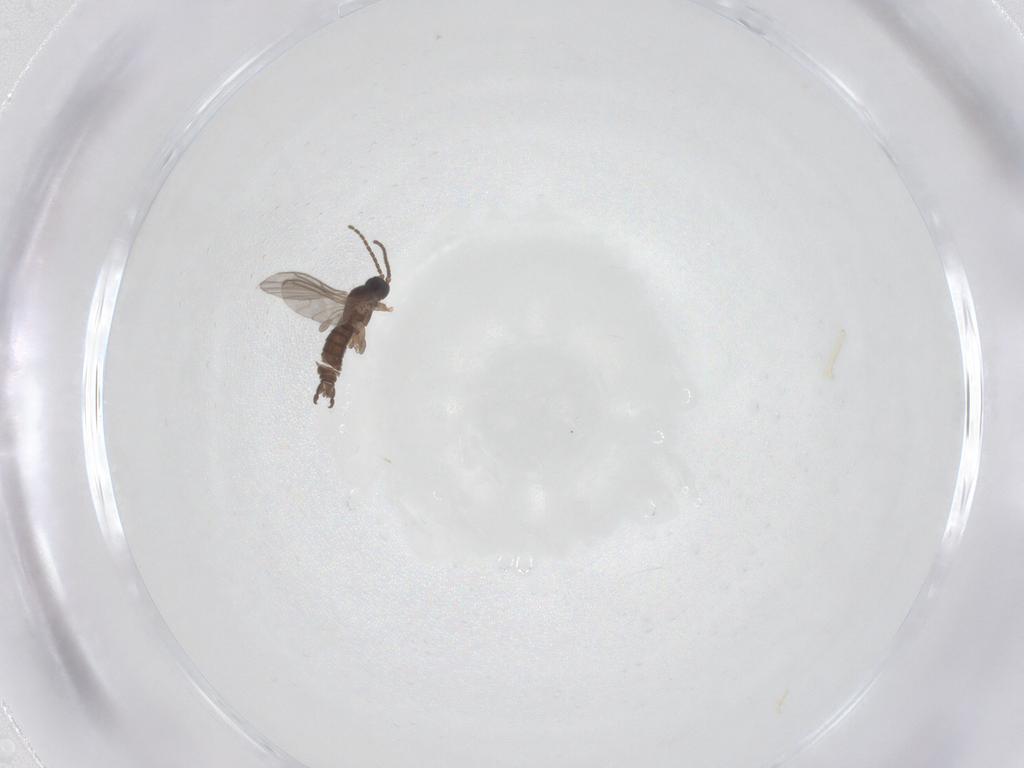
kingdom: Animalia
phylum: Arthropoda
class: Insecta
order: Diptera
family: Sciaridae
